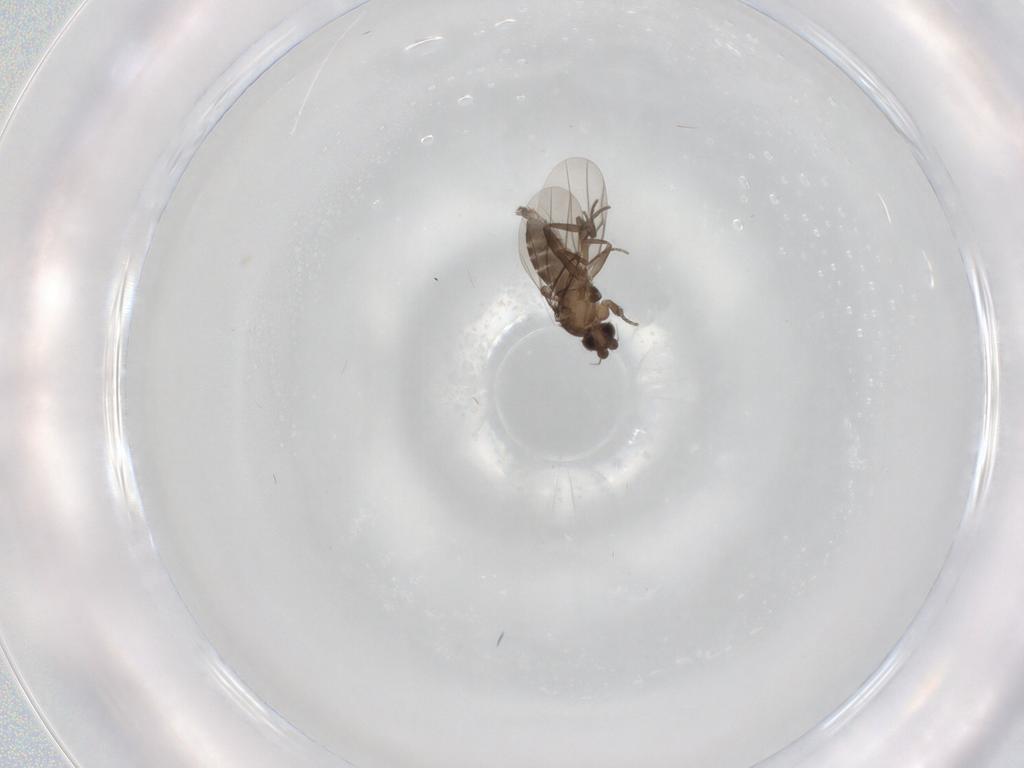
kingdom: Animalia
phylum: Arthropoda
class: Insecta
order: Diptera
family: Phoridae
